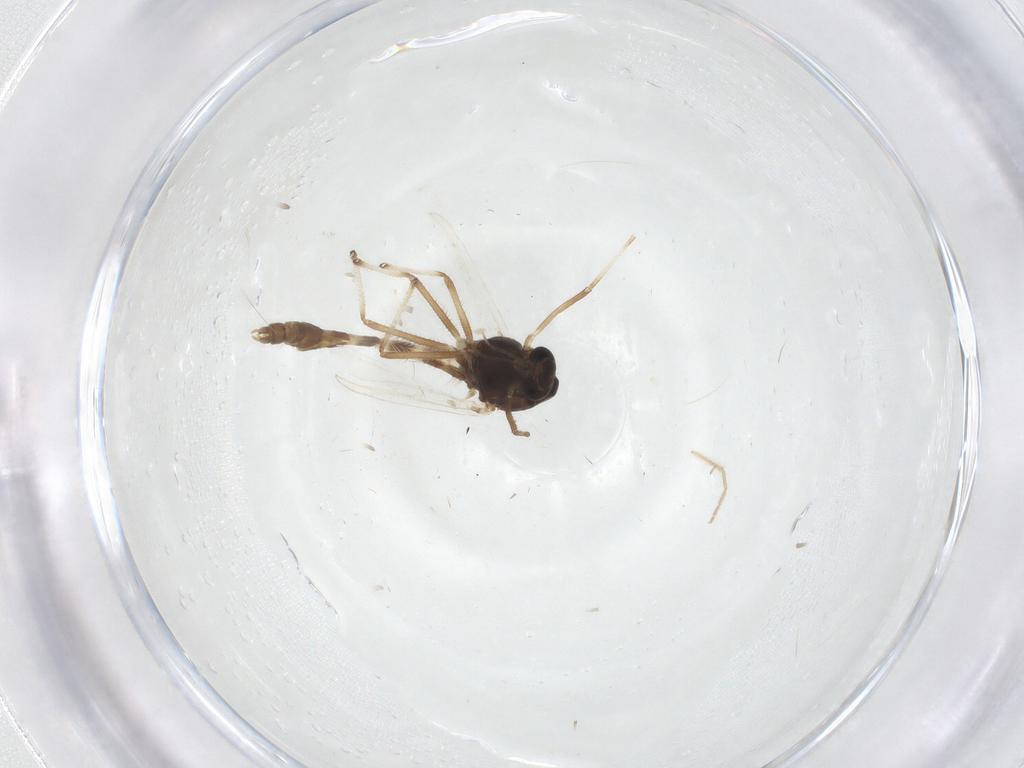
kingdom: Animalia
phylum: Arthropoda
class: Insecta
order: Diptera
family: Chironomidae
